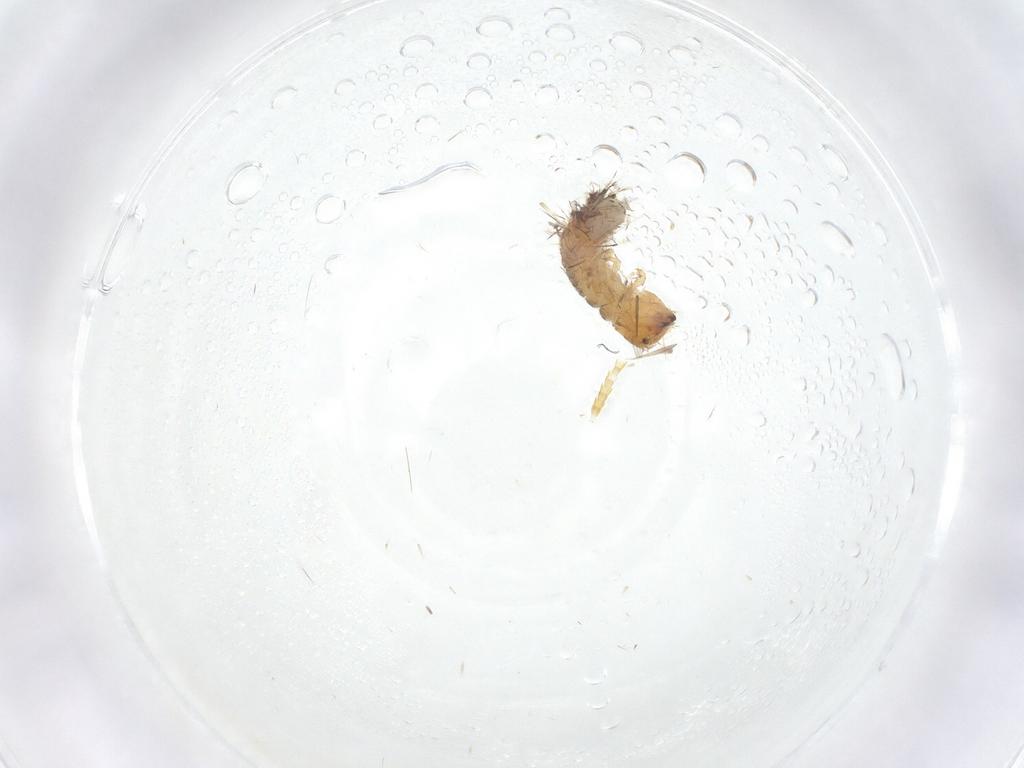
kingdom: Animalia
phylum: Arthropoda
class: Insecta
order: Lepidoptera
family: Lecithoceridae
